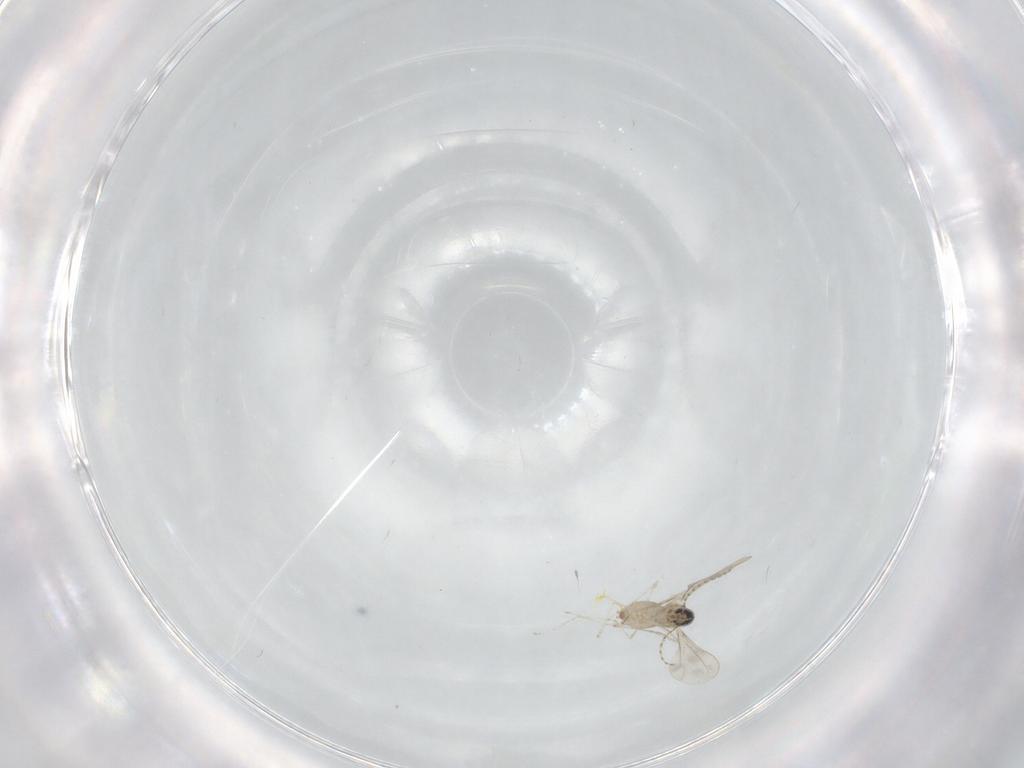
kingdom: Animalia
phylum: Arthropoda
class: Insecta
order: Diptera
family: Cecidomyiidae
